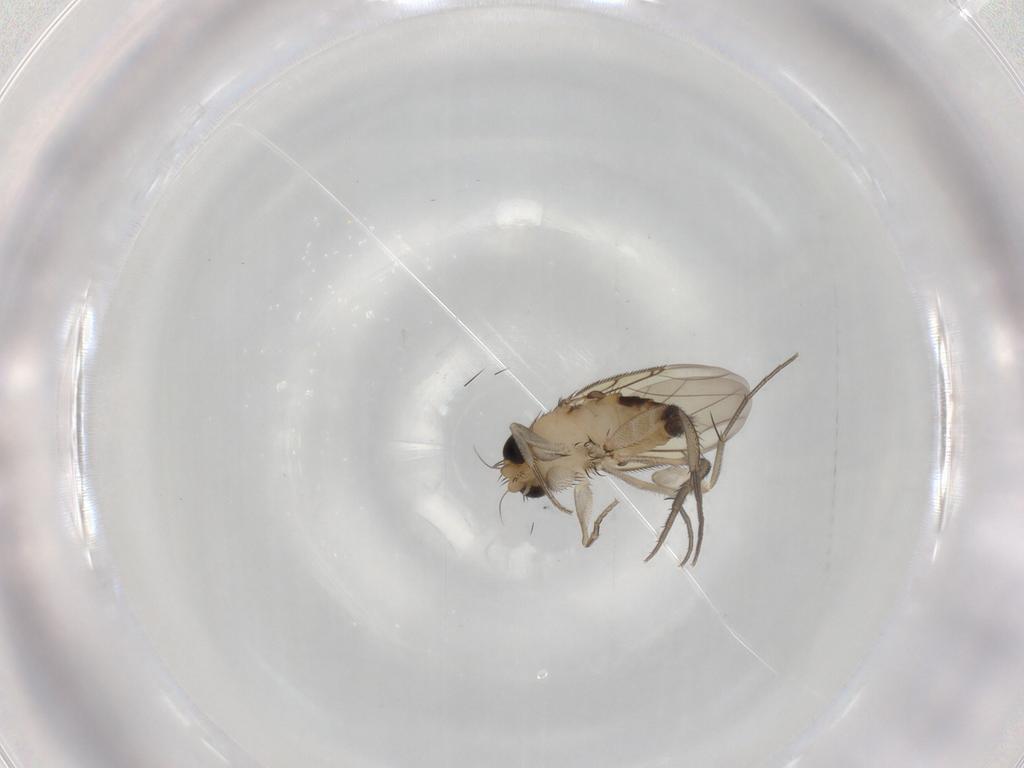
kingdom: Animalia
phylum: Arthropoda
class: Insecta
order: Diptera
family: Phoridae
